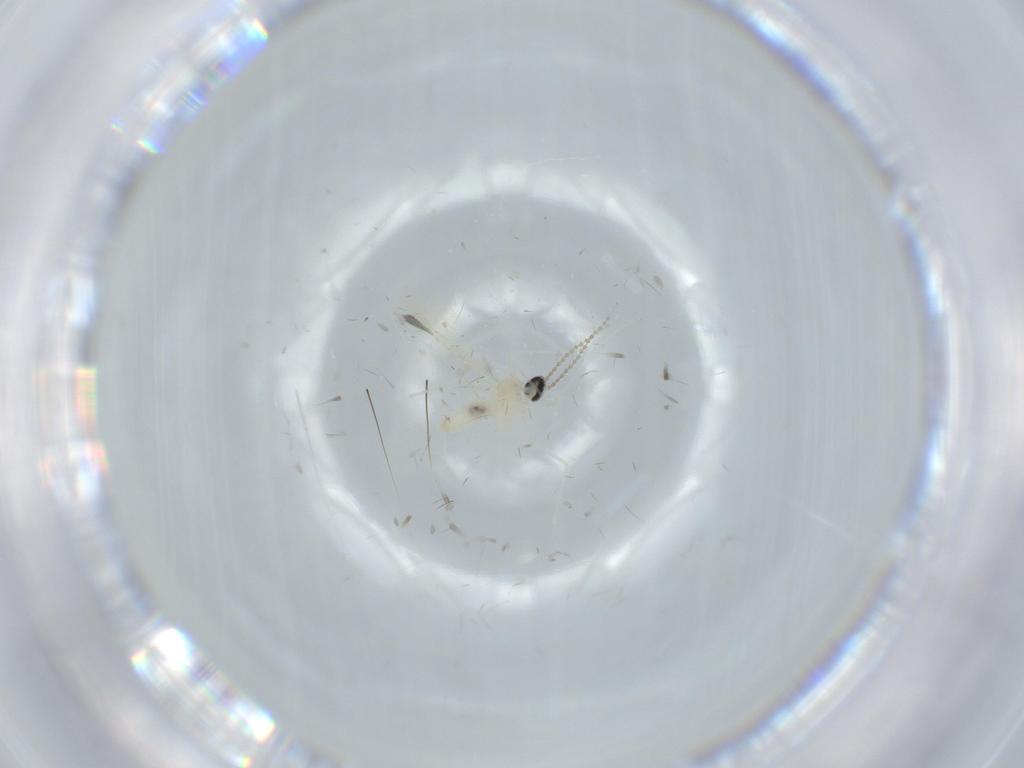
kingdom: Animalia
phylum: Arthropoda
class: Insecta
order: Diptera
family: Cecidomyiidae
